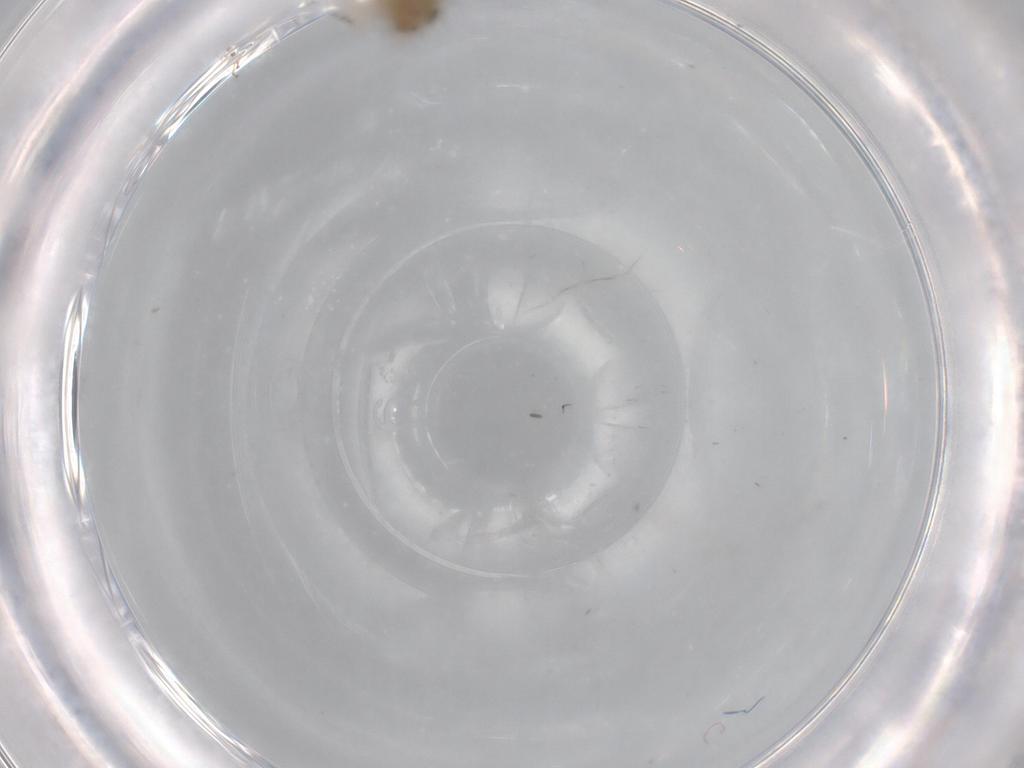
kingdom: Animalia
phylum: Arthropoda
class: Insecta
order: Diptera
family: Cecidomyiidae
